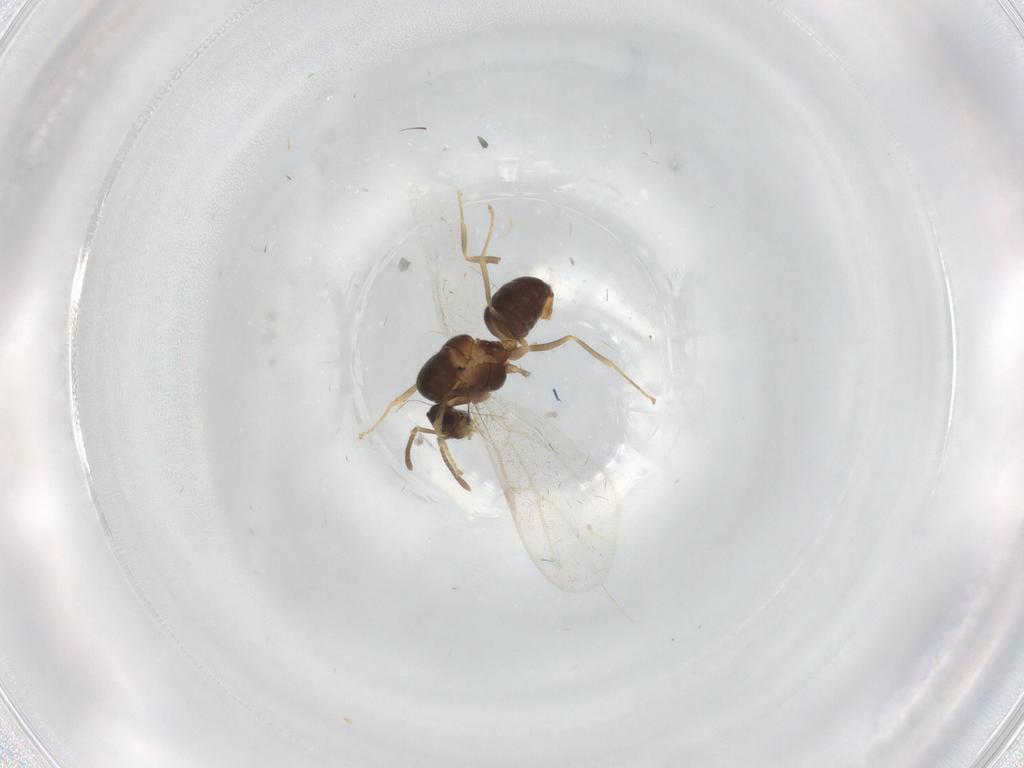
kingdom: Animalia
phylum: Arthropoda
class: Insecta
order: Hymenoptera
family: Formicidae
